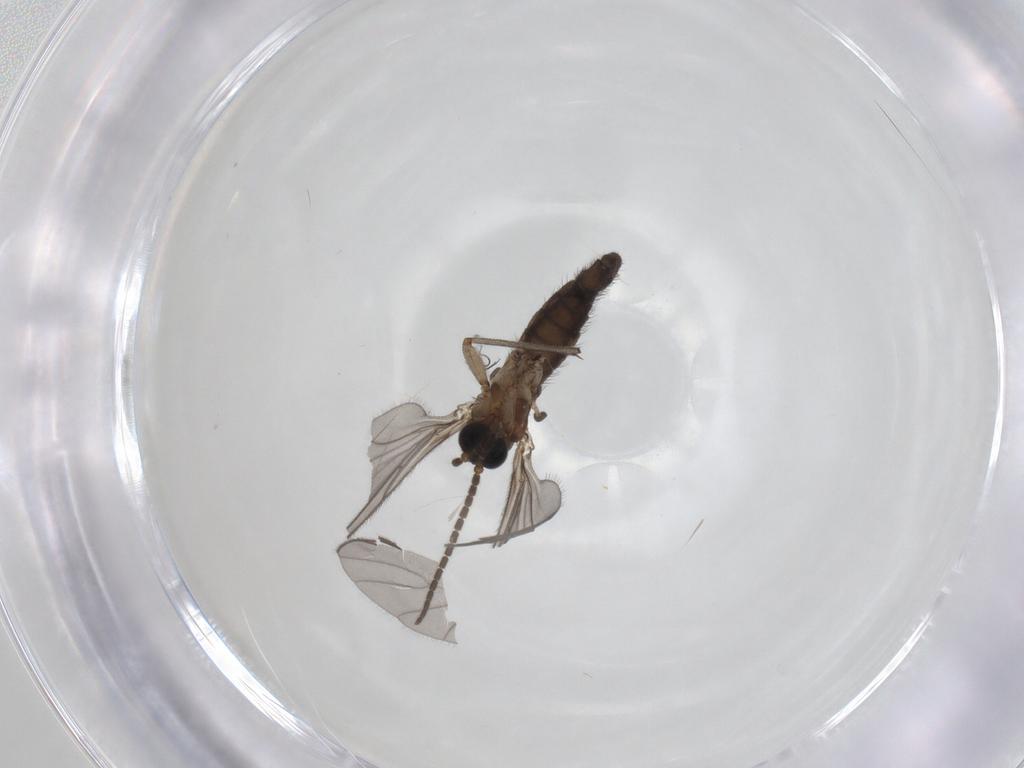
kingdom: Animalia
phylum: Arthropoda
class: Insecta
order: Diptera
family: Sciaridae
